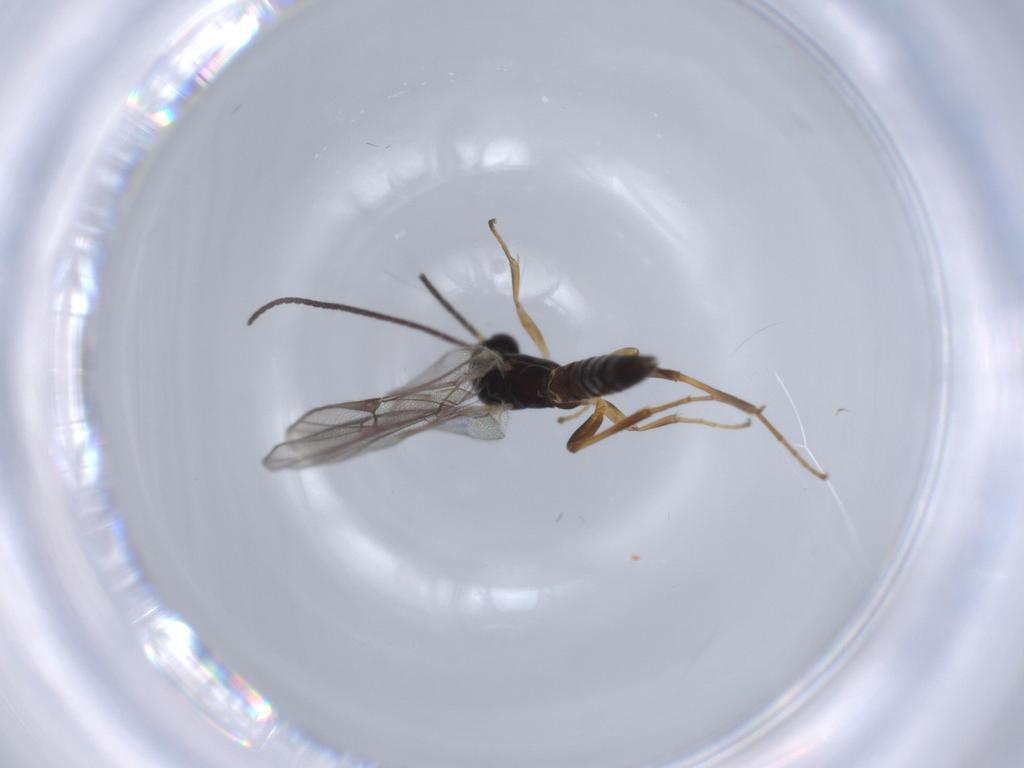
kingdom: Animalia
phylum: Arthropoda
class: Insecta
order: Hymenoptera
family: Ichneumonidae
